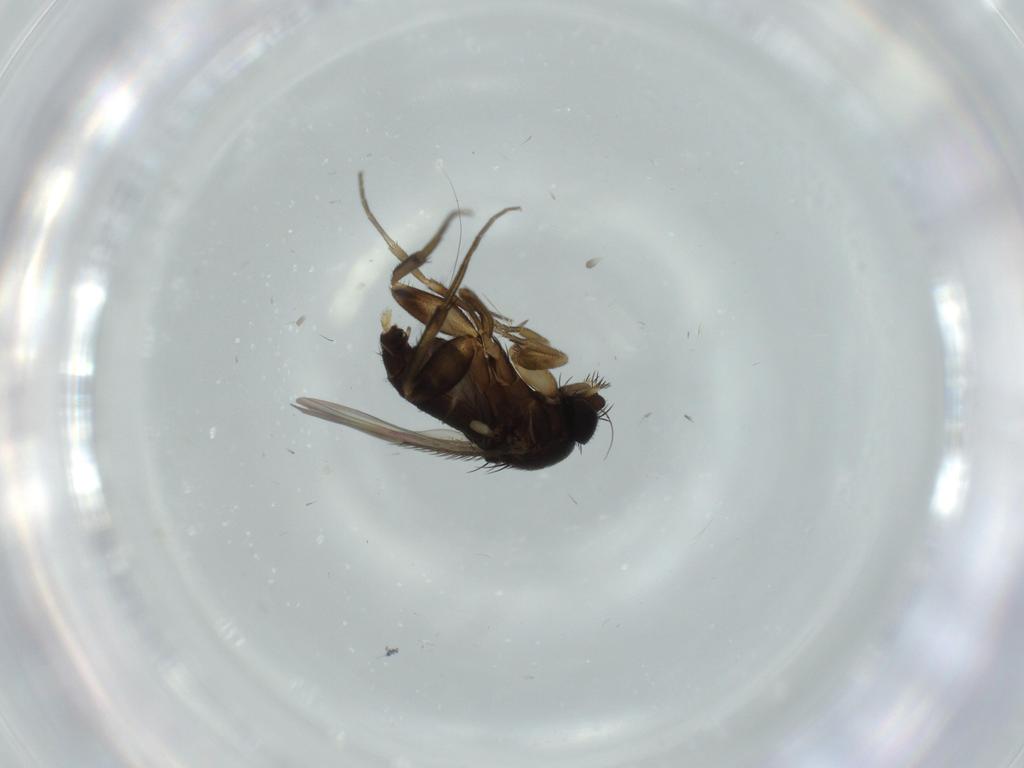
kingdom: Animalia
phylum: Arthropoda
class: Insecta
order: Diptera
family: Phoridae
